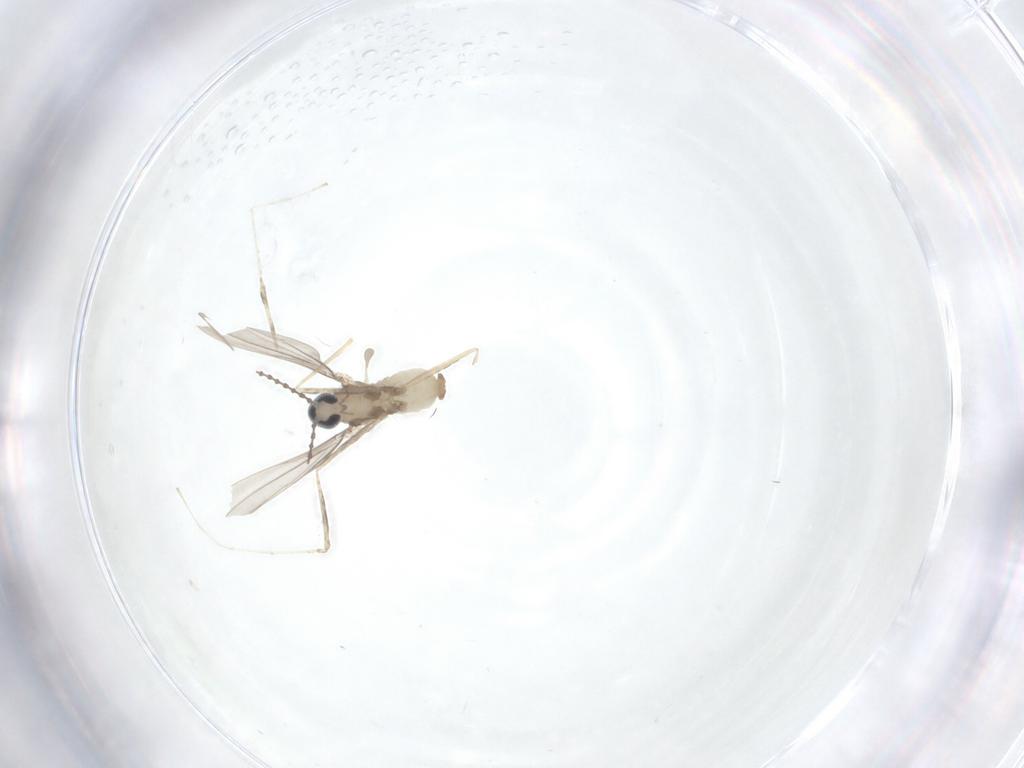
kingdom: Animalia
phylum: Arthropoda
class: Insecta
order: Diptera
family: Cecidomyiidae
